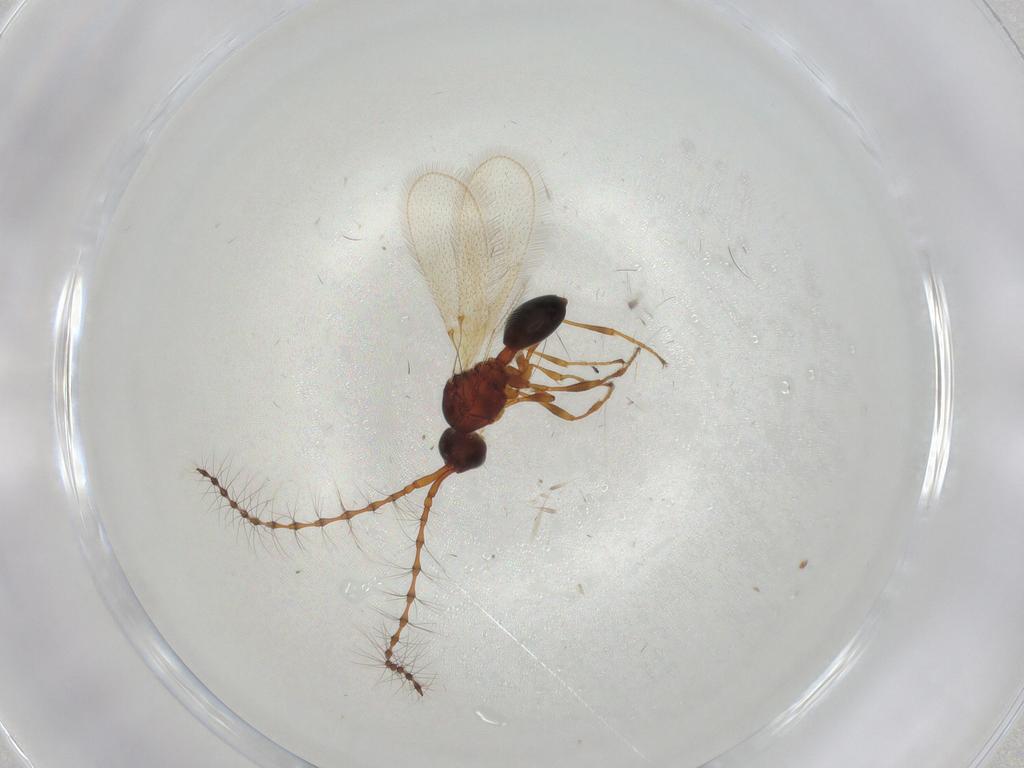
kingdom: Animalia
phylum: Arthropoda
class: Insecta
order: Hymenoptera
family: Diapriidae
